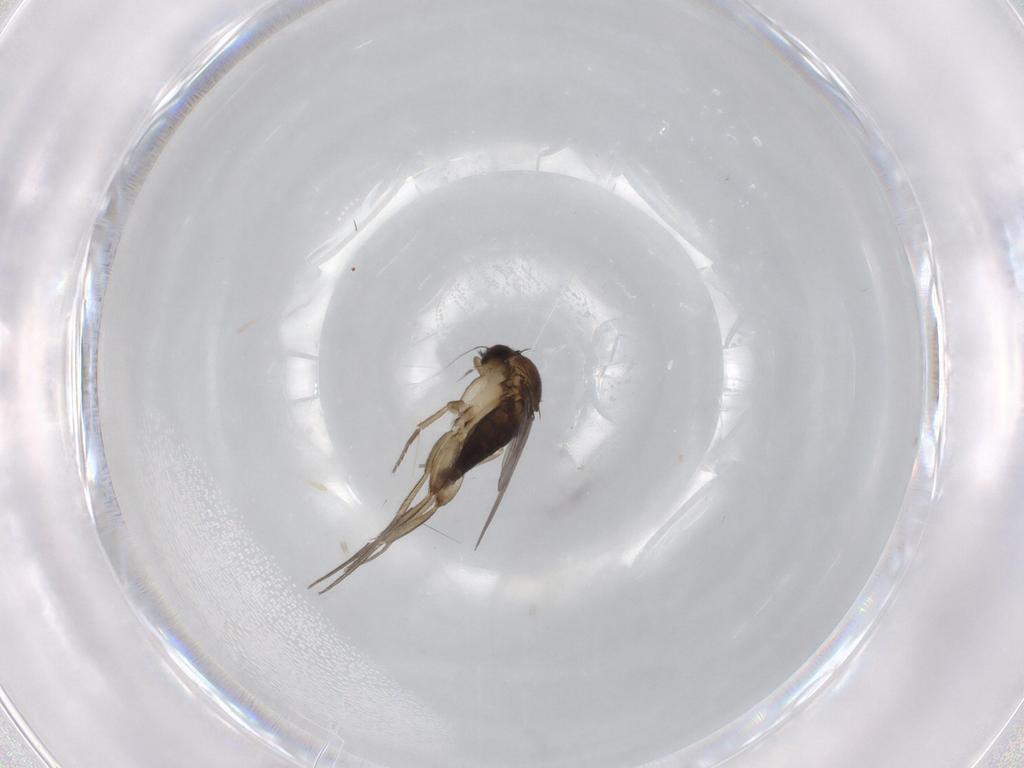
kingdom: Animalia
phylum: Arthropoda
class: Insecta
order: Diptera
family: Phoridae
